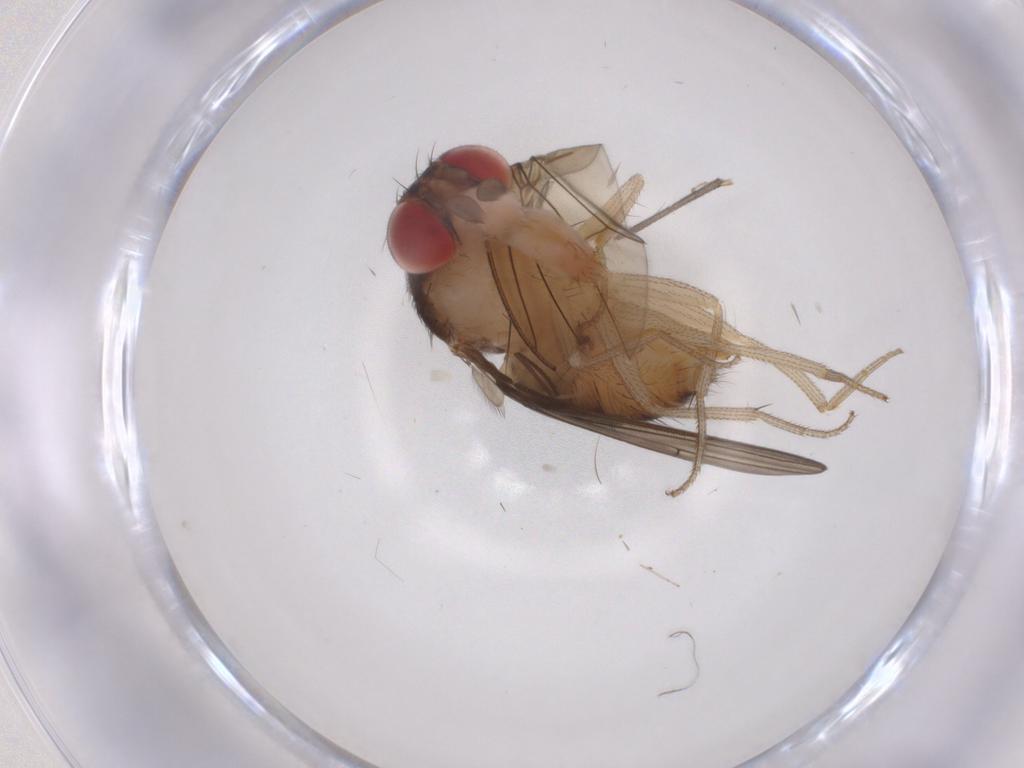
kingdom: Animalia
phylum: Arthropoda
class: Insecta
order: Diptera
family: Drosophilidae
